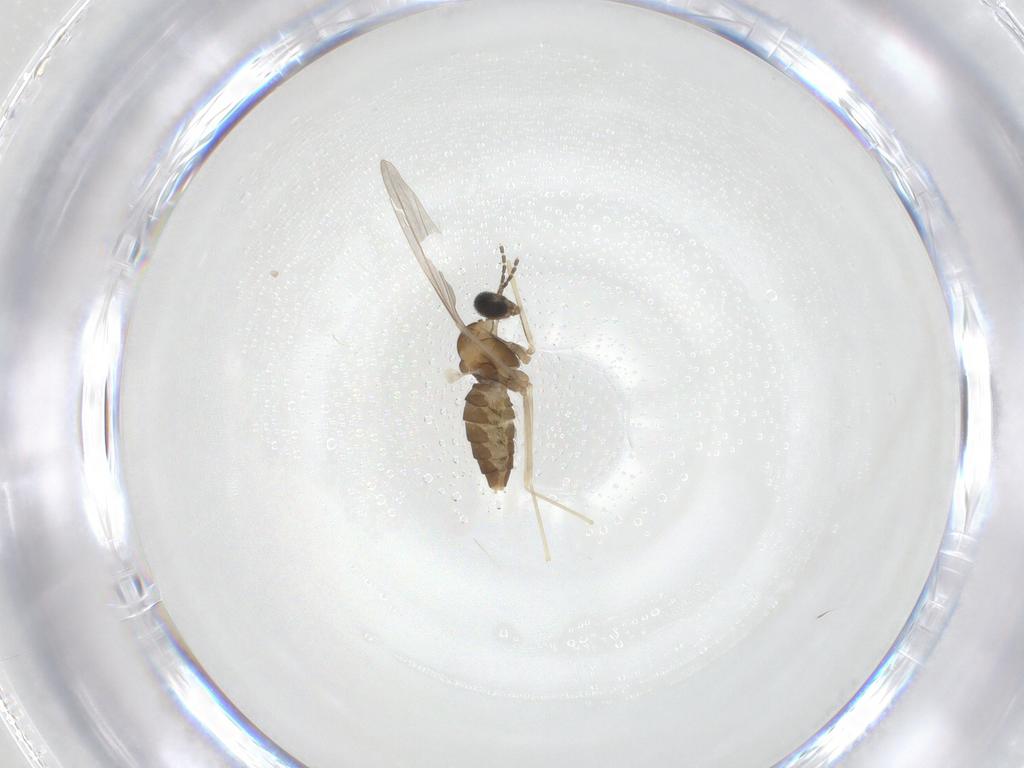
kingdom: Animalia
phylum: Arthropoda
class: Insecta
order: Diptera
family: Cecidomyiidae
